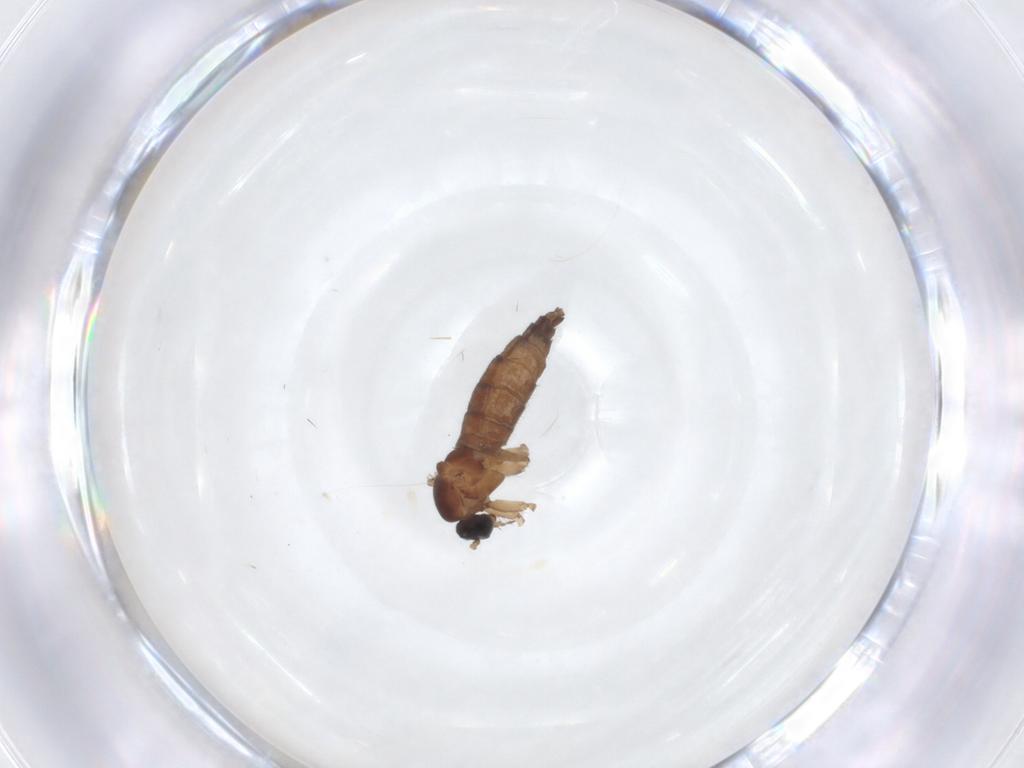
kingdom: Animalia
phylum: Arthropoda
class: Insecta
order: Diptera
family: Sciaridae
